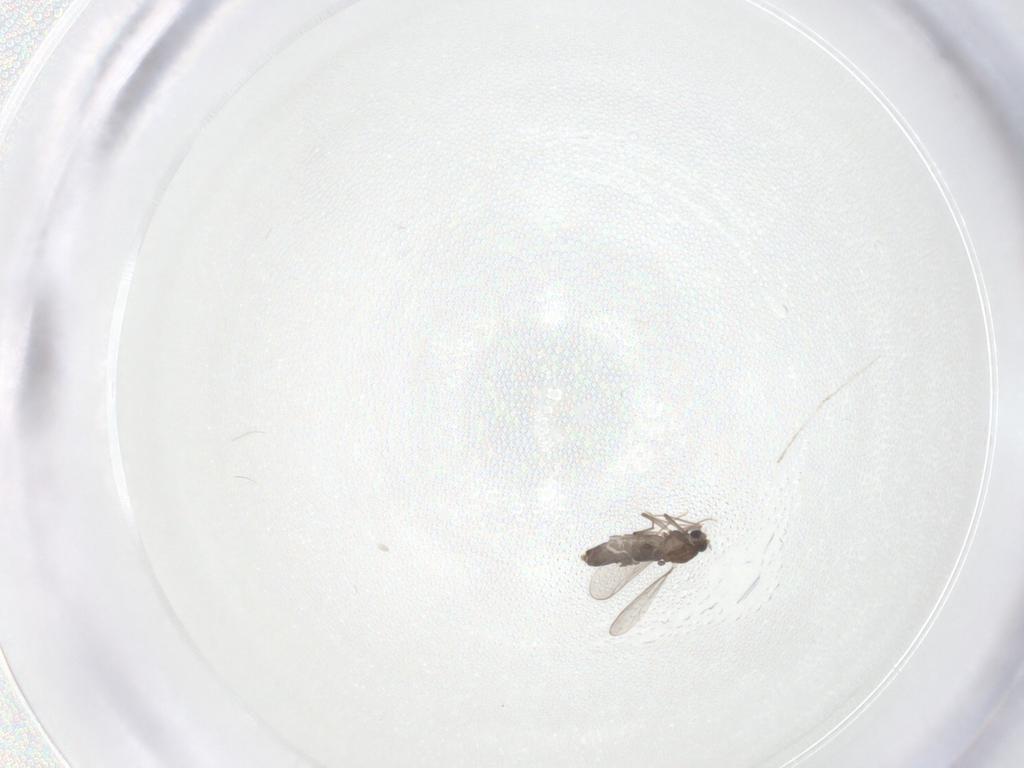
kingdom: Animalia
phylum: Arthropoda
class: Insecta
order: Diptera
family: Chironomidae
